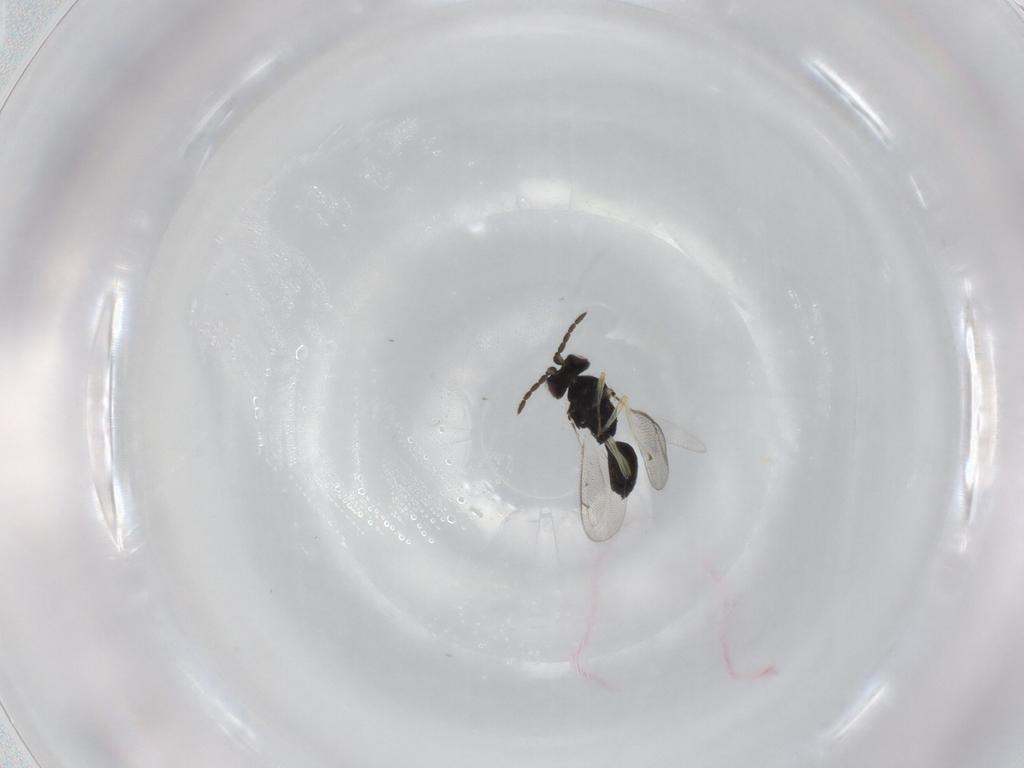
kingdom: Animalia
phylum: Arthropoda
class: Insecta
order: Hymenoptera
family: Eulophidae
